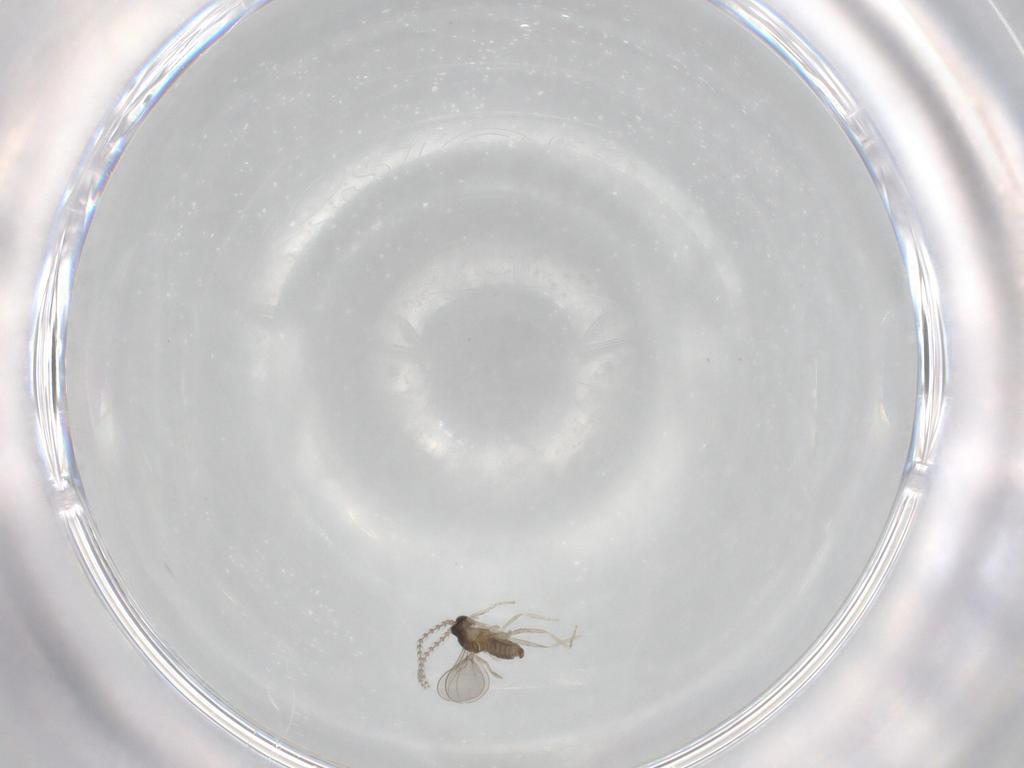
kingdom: Animalia
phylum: Arthropoda
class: Insecta
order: Diptera
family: Cecidomyiidae
